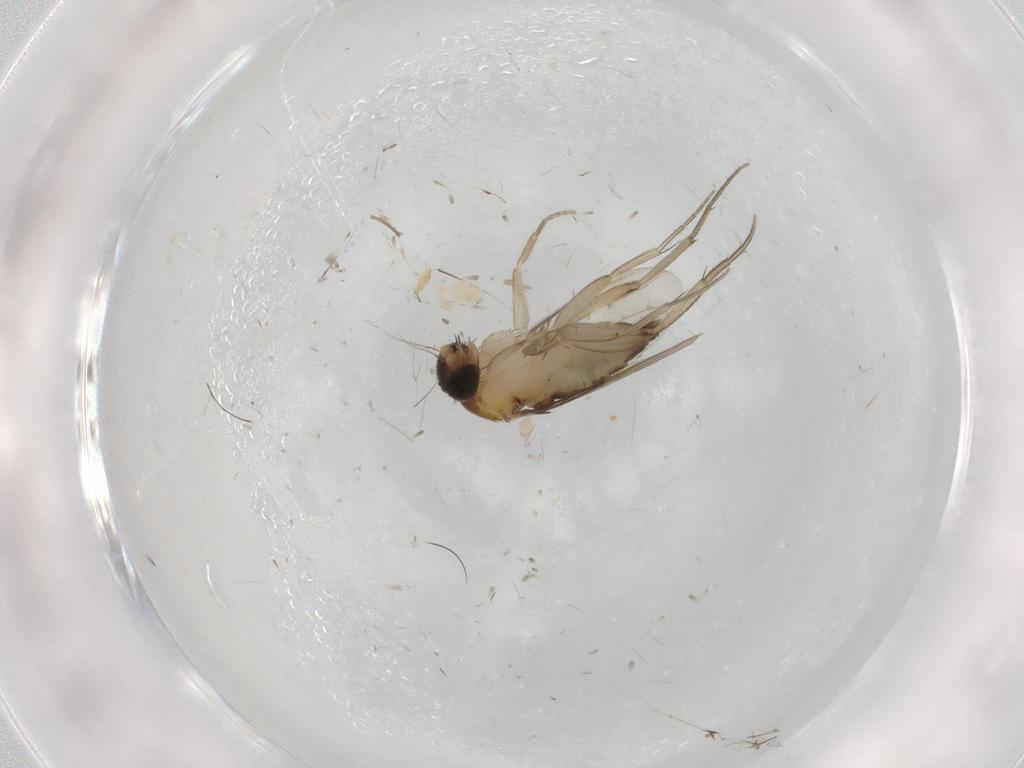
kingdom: Animalia
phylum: Arthropoda
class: Insecta
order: Diptera
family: Phoridae
